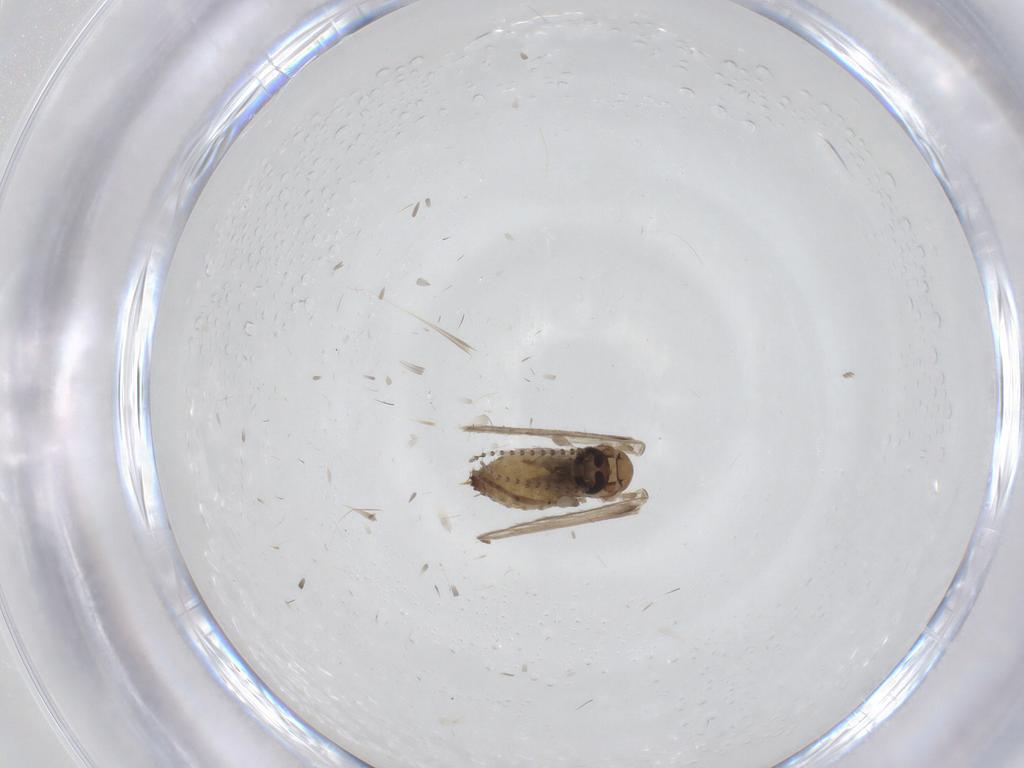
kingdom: Animalia
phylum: Arthropoda
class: Insecta
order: Diptera
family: Psychodidae
